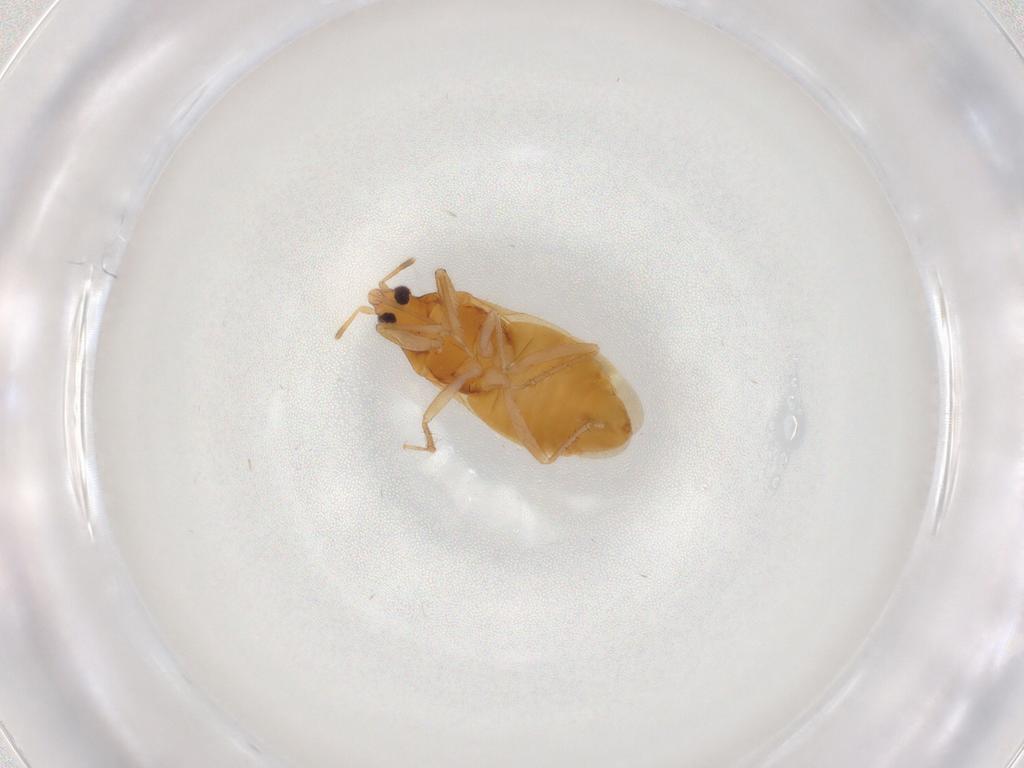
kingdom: Animalia
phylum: Arthropoda
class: Insecta
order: Hemiptera
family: Lasiochilidae
